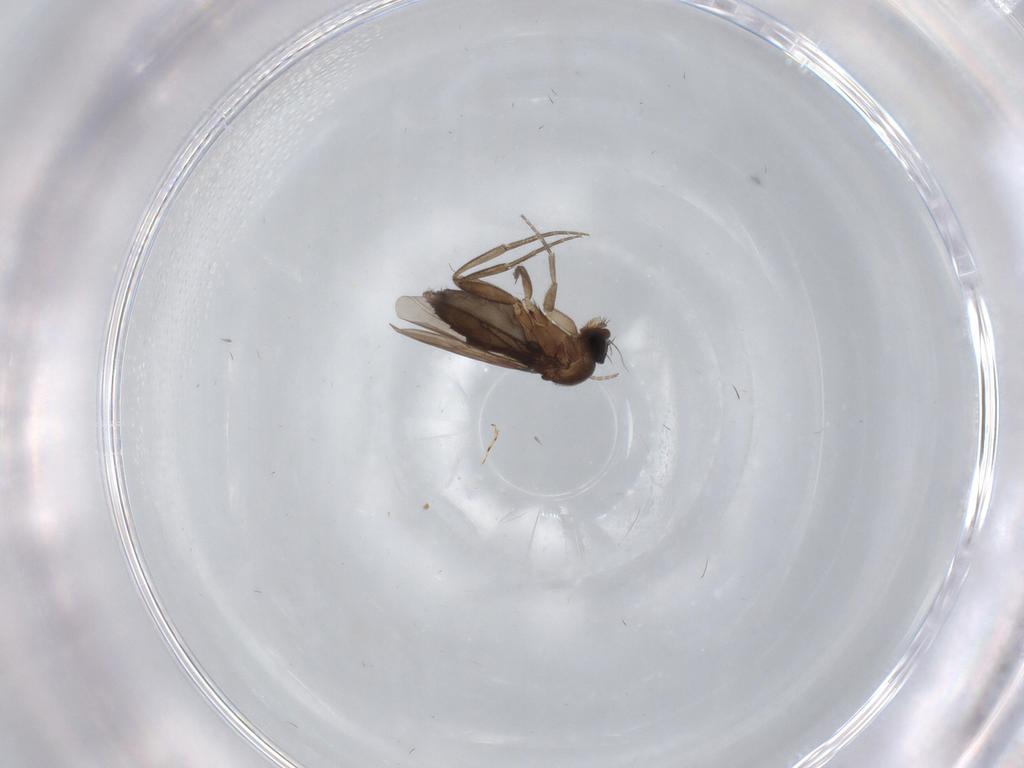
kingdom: Animalia
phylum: Arthropoda
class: Insecta
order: Diptera
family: Phoridae
